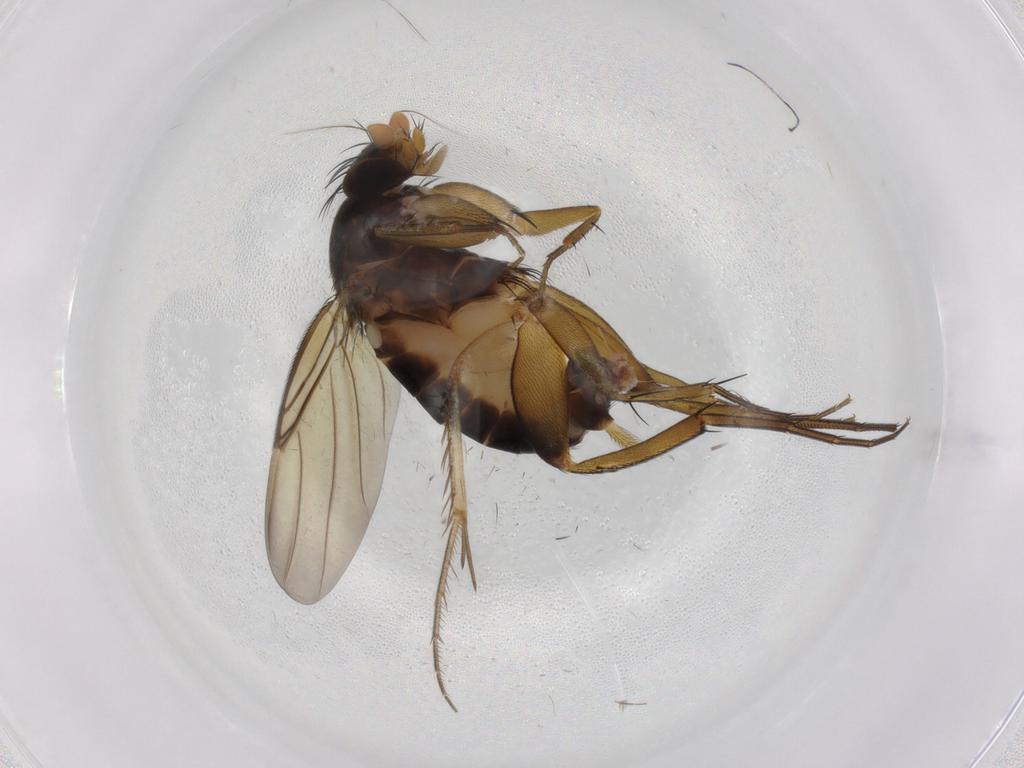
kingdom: Animalia
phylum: Arthropoda
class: Insecta
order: Diptera
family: Phoridae
